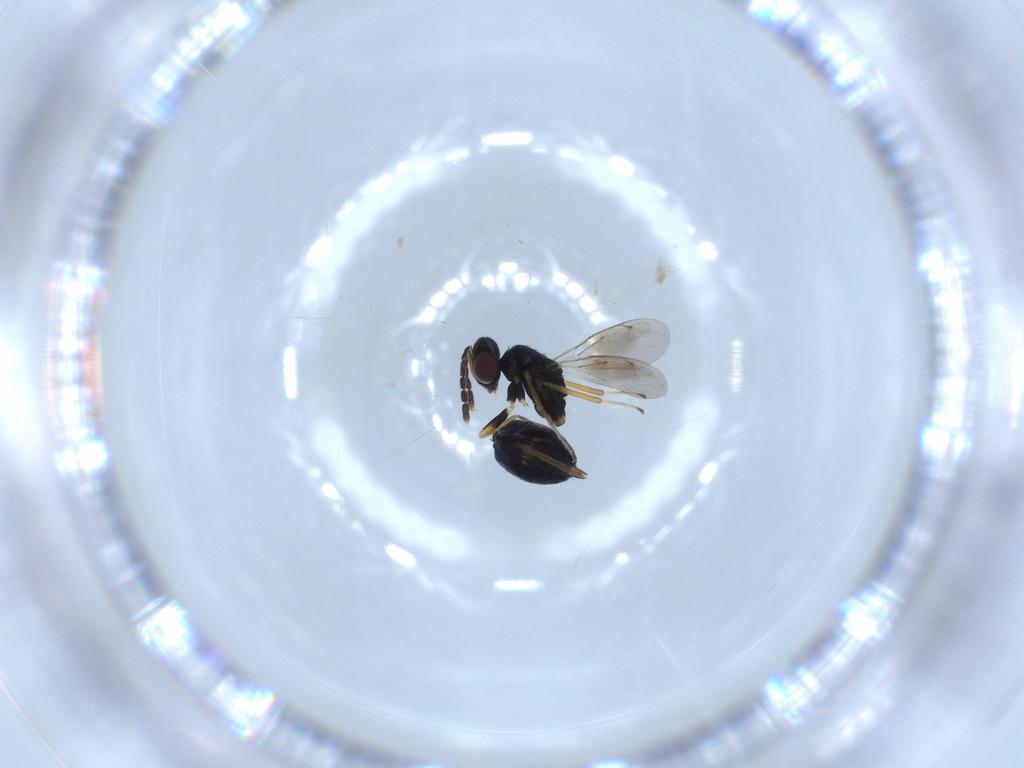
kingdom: Animalia
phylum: Arthropoda
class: Insecta
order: Hymenoptera
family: Eulophidae
